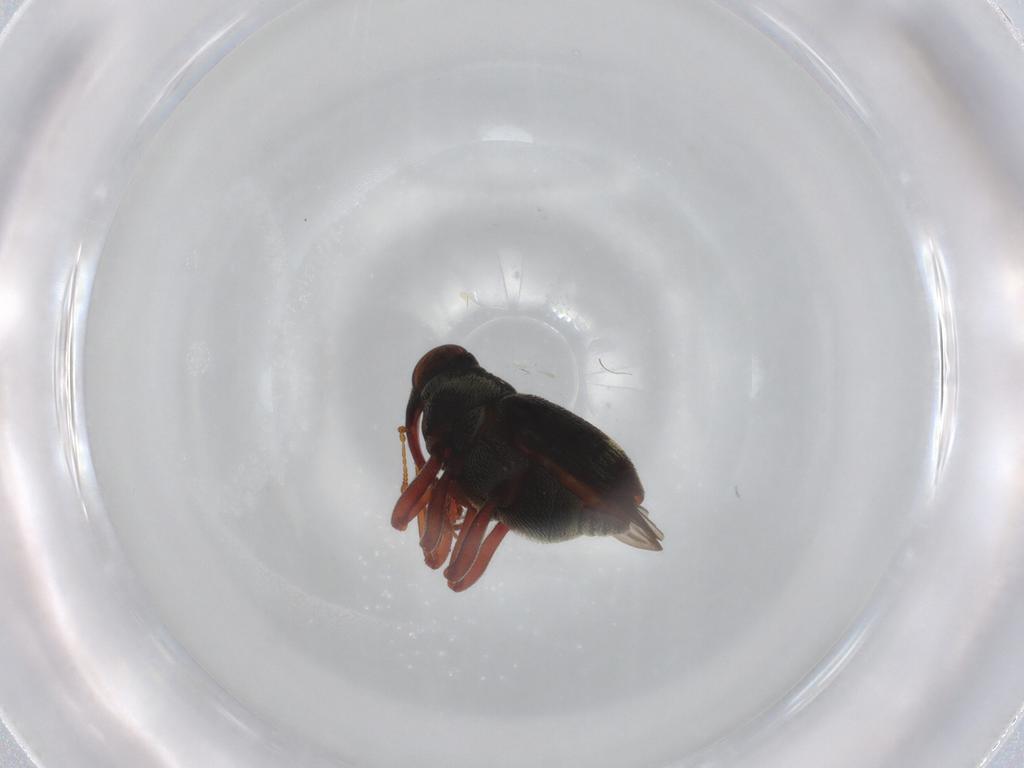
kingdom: Animalia
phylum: Arthropoda
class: Insecta
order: Coleoptera
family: Curculionidae
